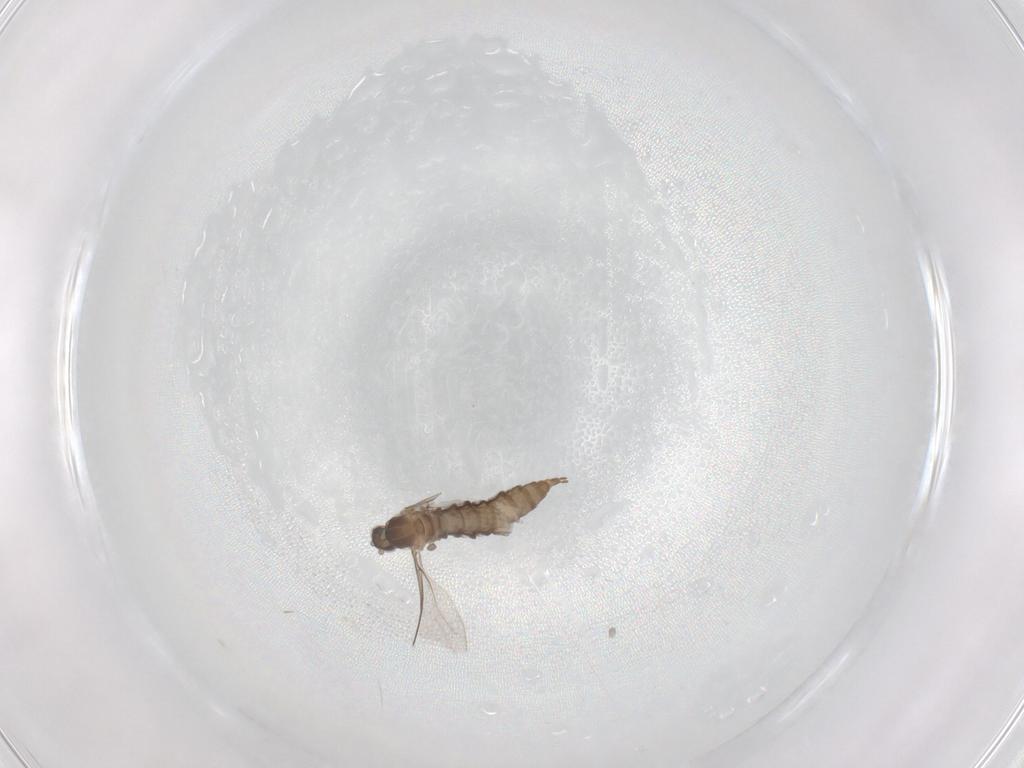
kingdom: Animalia
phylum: Arthropoda
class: Insecta
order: Diptera
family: Cecidomyiidae
